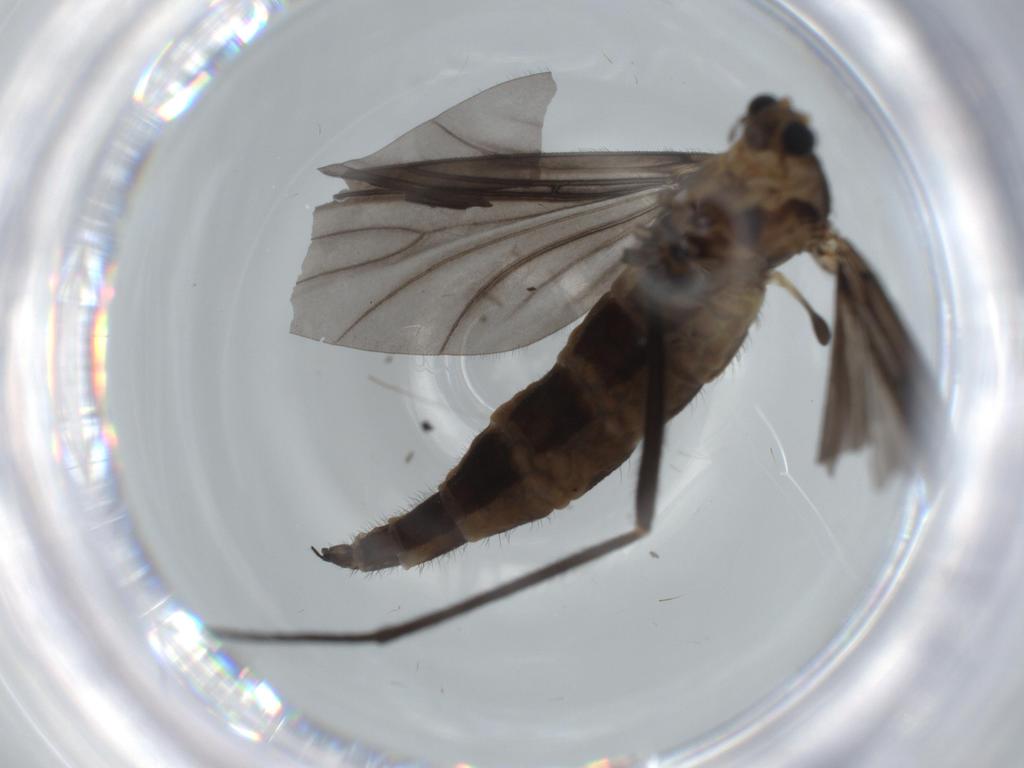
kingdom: Animalia
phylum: Arthropoda
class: Insecta
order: Diptera
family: Sciaridae
